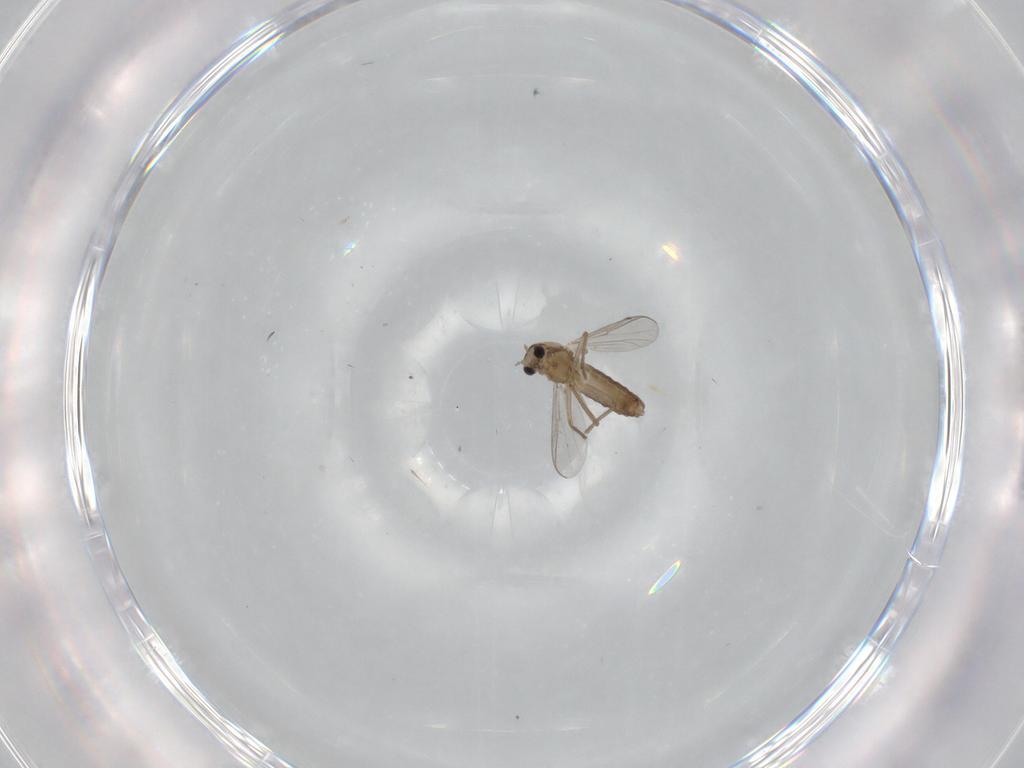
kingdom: Animalia
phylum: Arthropoda
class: Insecta
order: Diptera
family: Chironomidae
